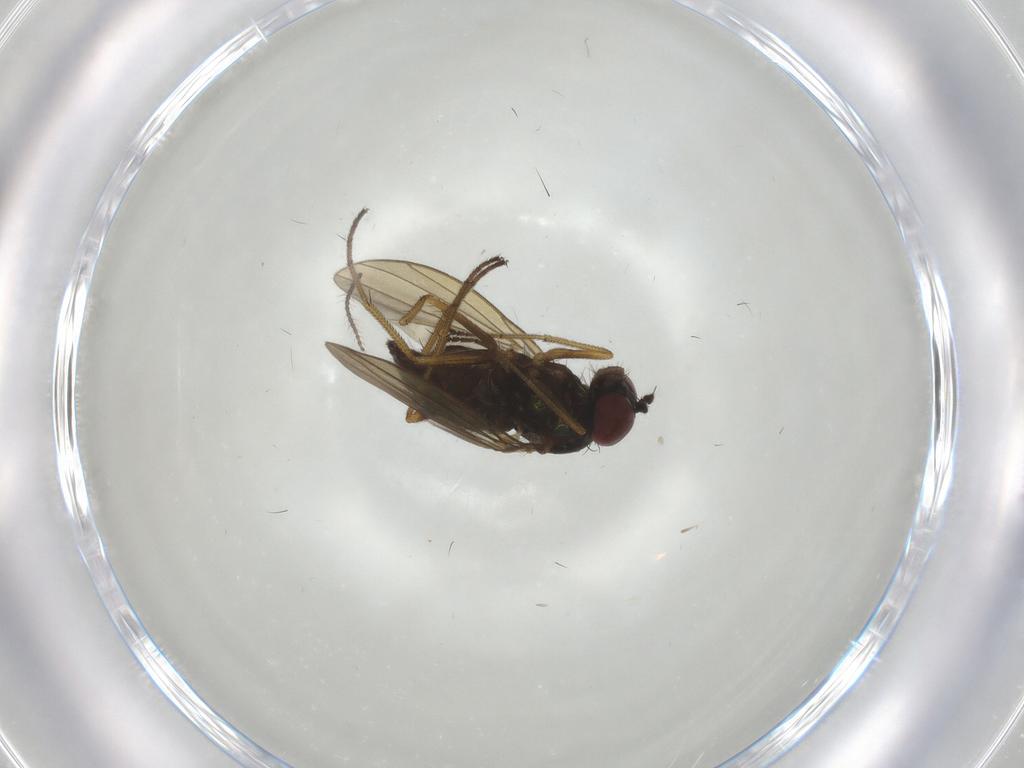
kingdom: Animalia
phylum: Arthropoda
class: Insecta
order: Diptera
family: Dolichopodidae
